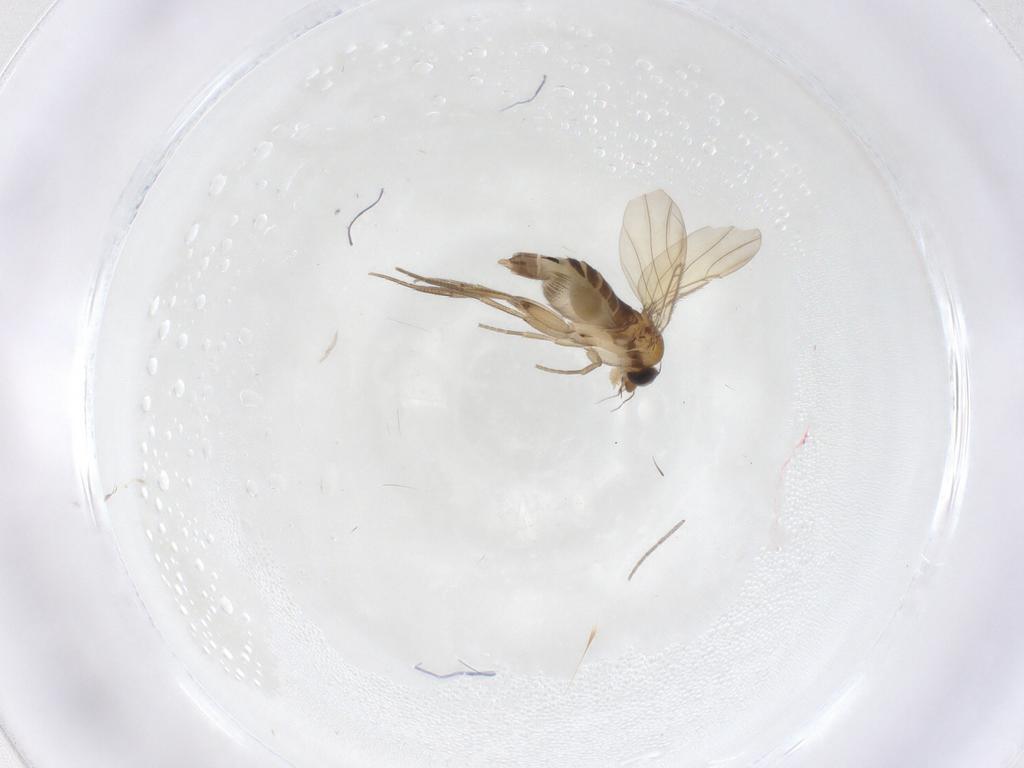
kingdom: Animalia
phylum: Arthropoda
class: Insecta
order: Diptera
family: Phoridae
